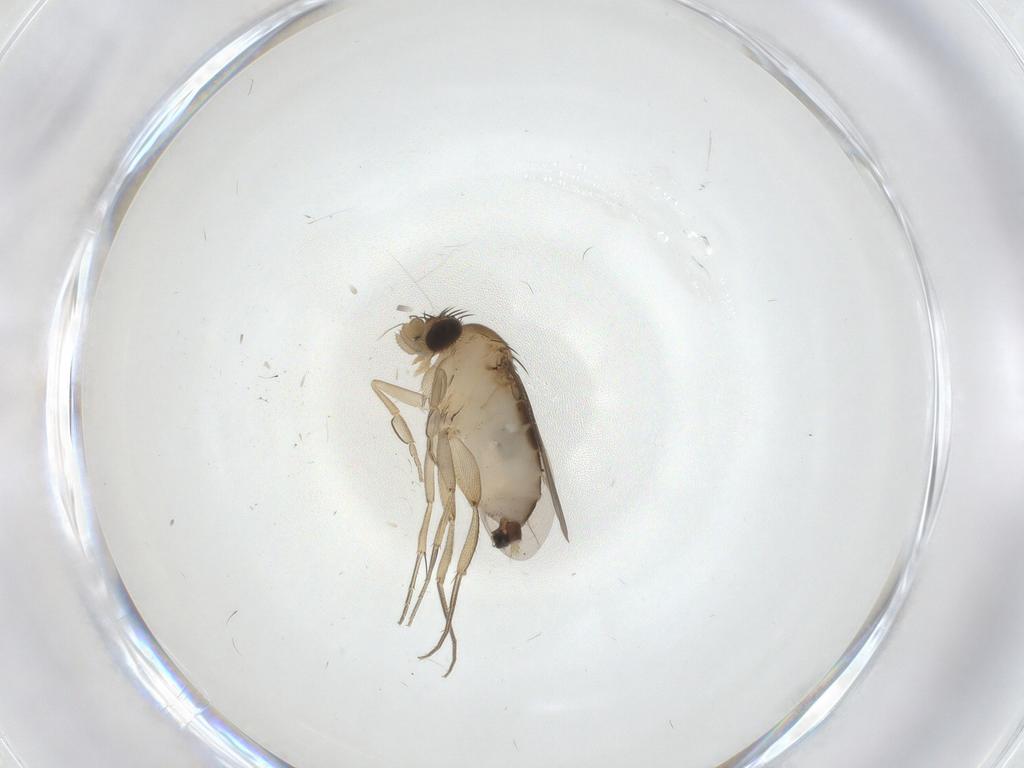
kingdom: Animalia
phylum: Arthropoda
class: Insecta
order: Diptera
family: Phoridae
